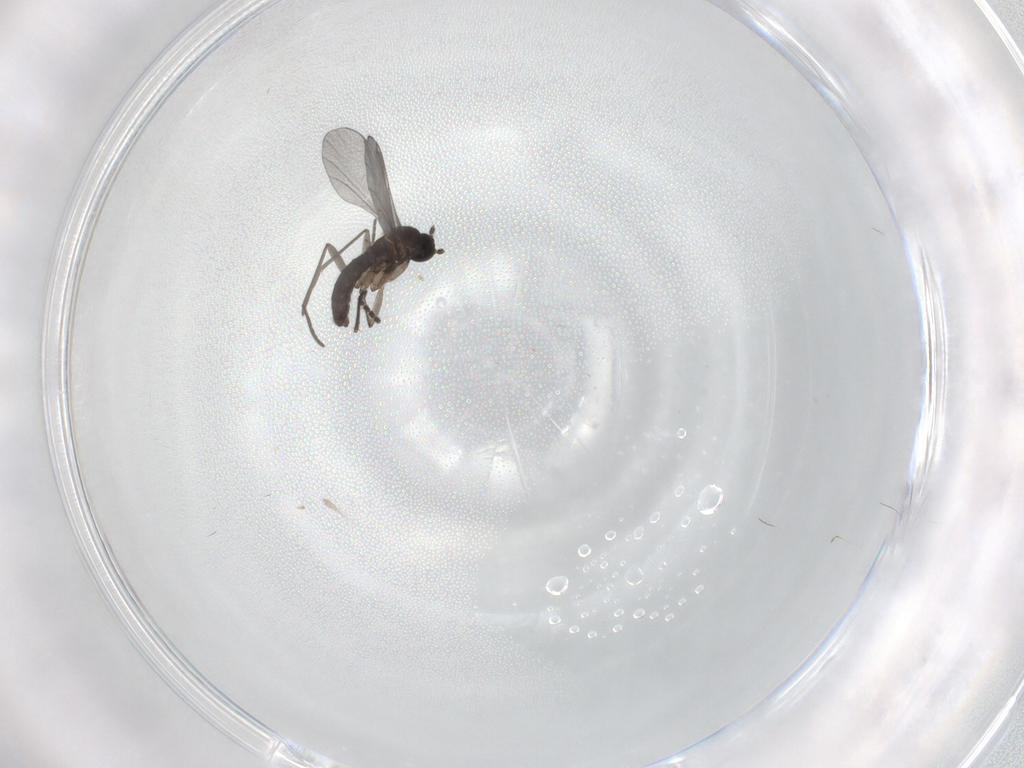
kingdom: Animalia
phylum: Arthropoda
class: Insecta
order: Diptera
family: Sciaridae
